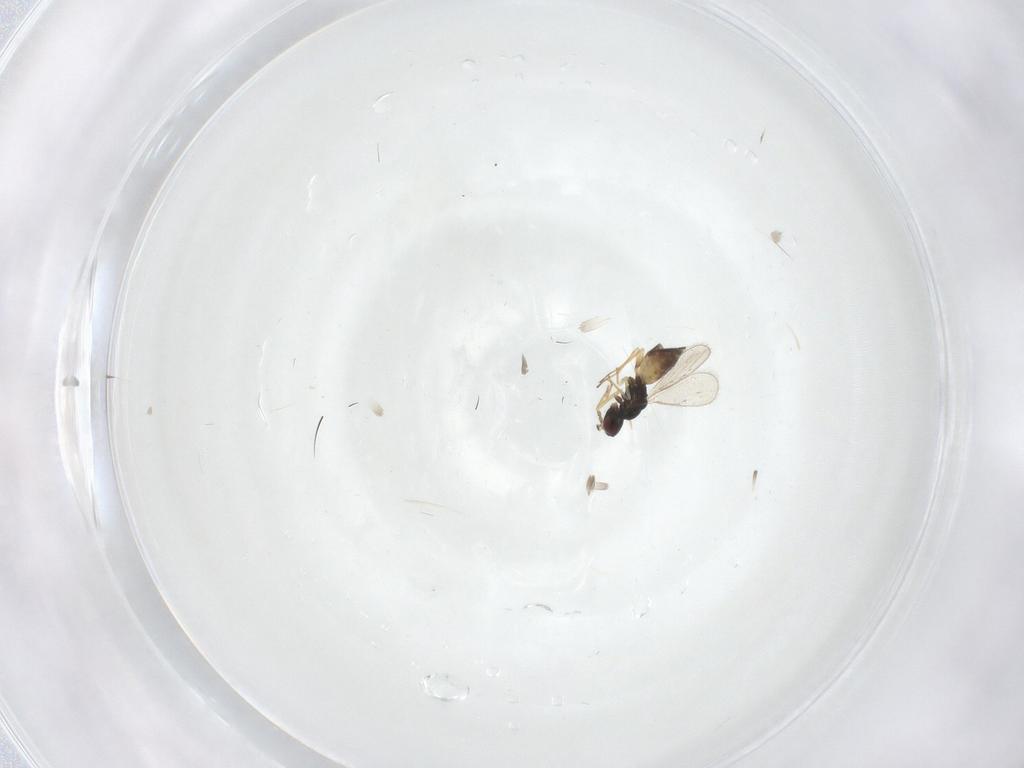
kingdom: Animalia
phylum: Arthropoda
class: Insecta
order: Hymenoptera
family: Eulophidae
